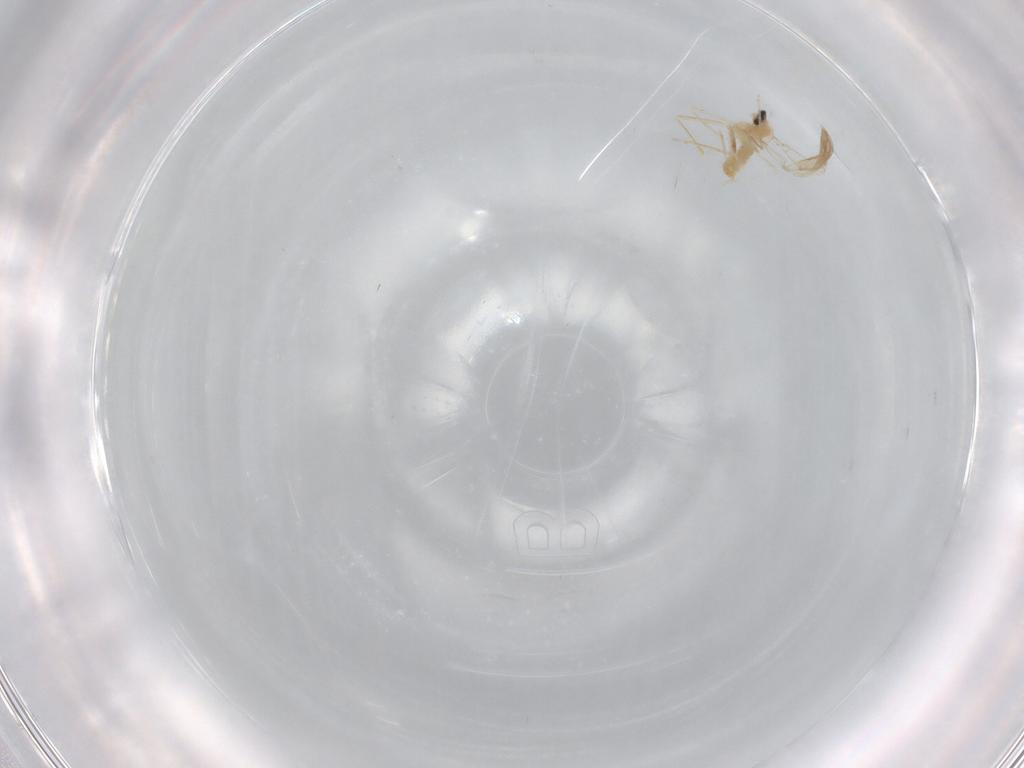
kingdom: Animalia
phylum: Arthropoda
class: Insecta
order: Diptera
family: Cecidomyiidae
